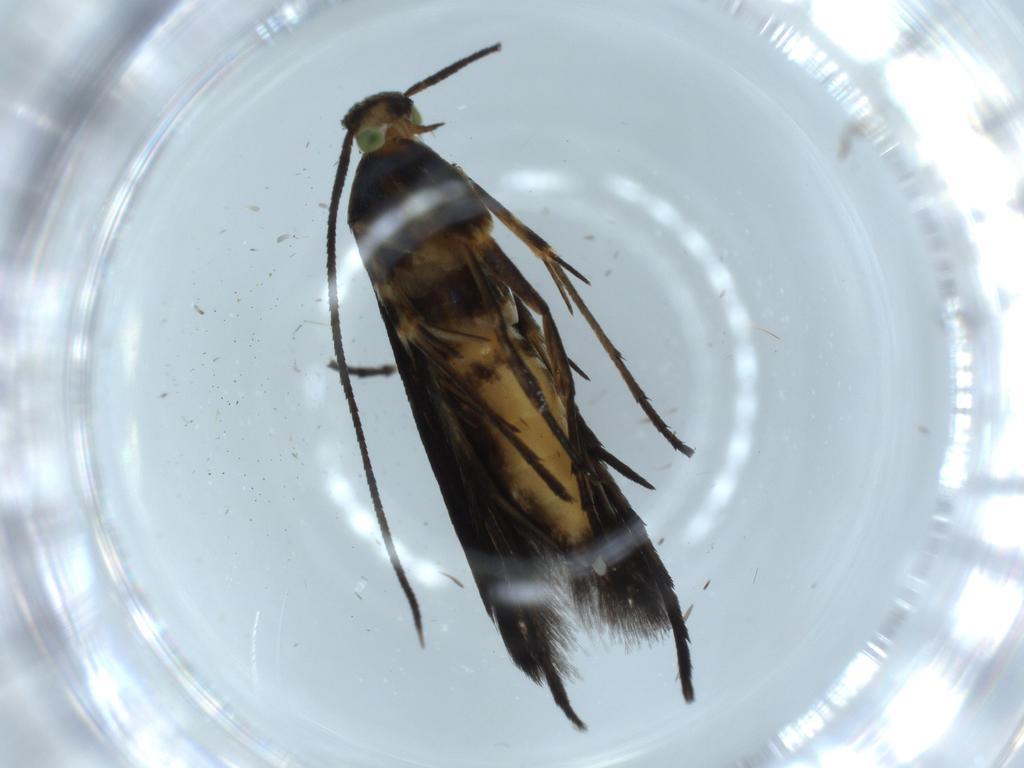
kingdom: Animalia
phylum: Arthropoda
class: Insecta
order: Lepidoptera
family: Heliodinidae
